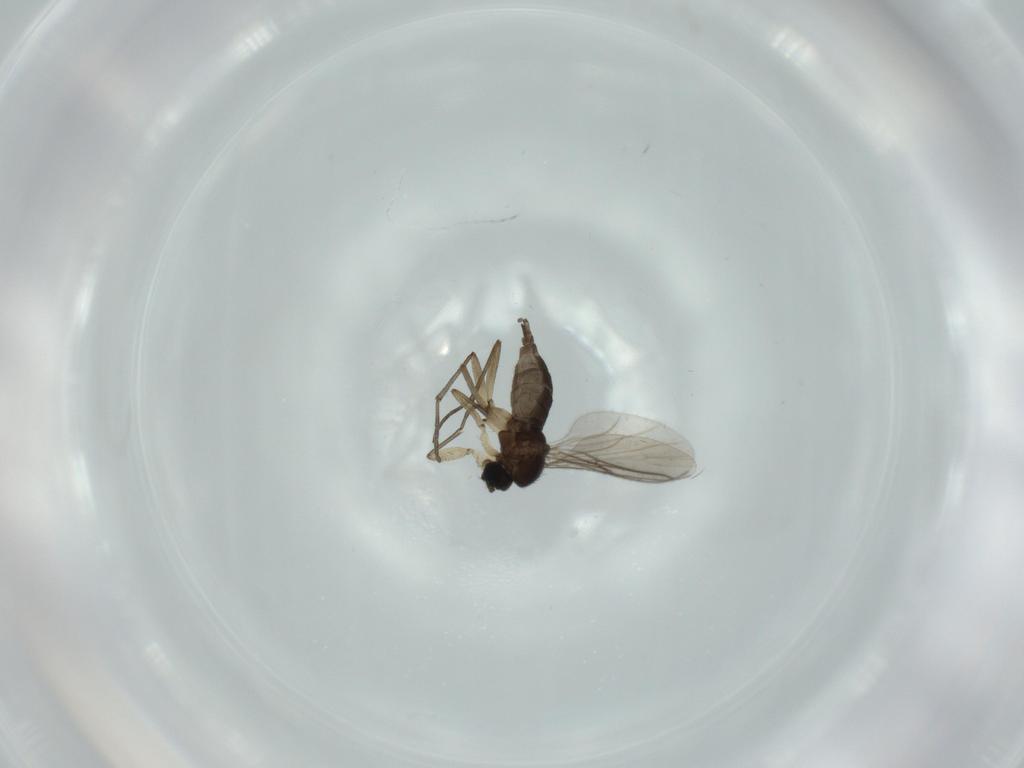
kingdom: Animalia
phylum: Arthropoda
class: Insecta
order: Diptera
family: Sciaridae
